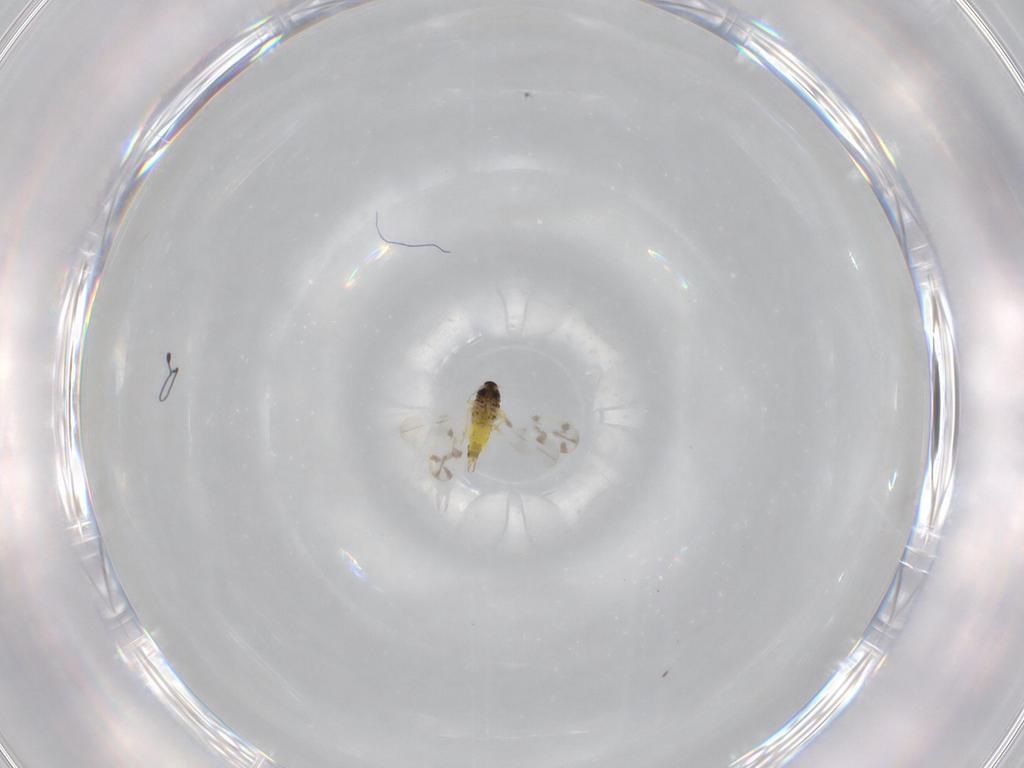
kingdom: Animalia
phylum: Arthropoda
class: Insecta
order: Hemiptera
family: Aleyrodidae
